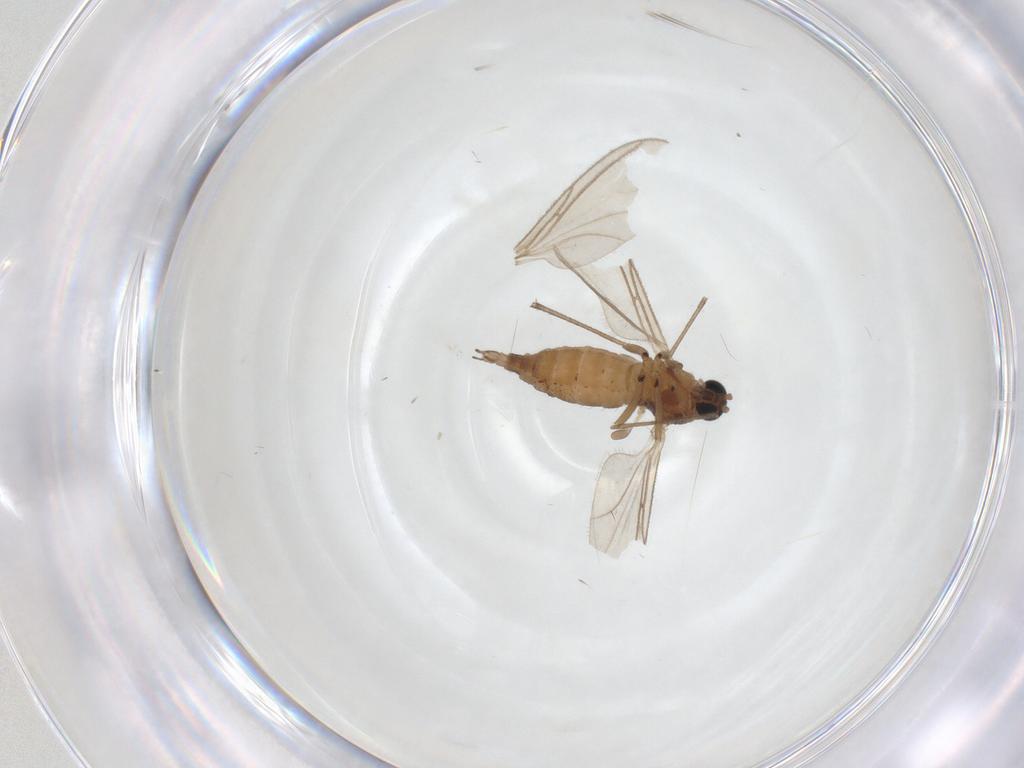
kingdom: Animalia
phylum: Arthropoda
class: Insecta
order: Diptera
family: Sciaridae
